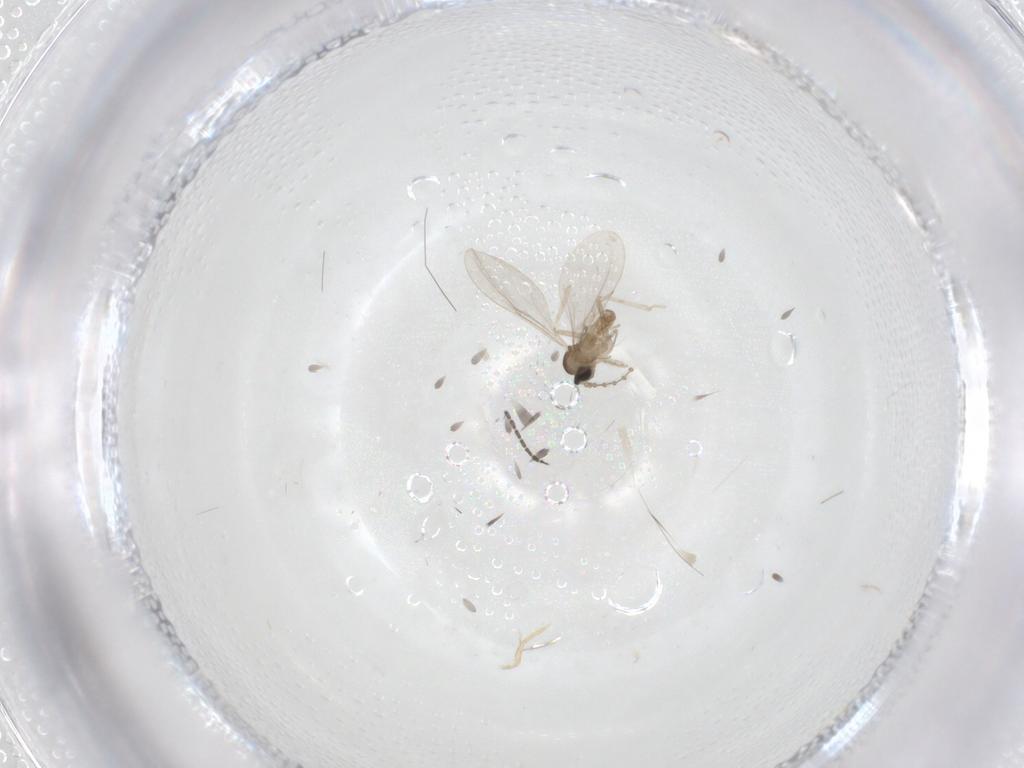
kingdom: Animalia
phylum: Arthropoda
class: Insecta
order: Diptera
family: Cecidomyiidae
